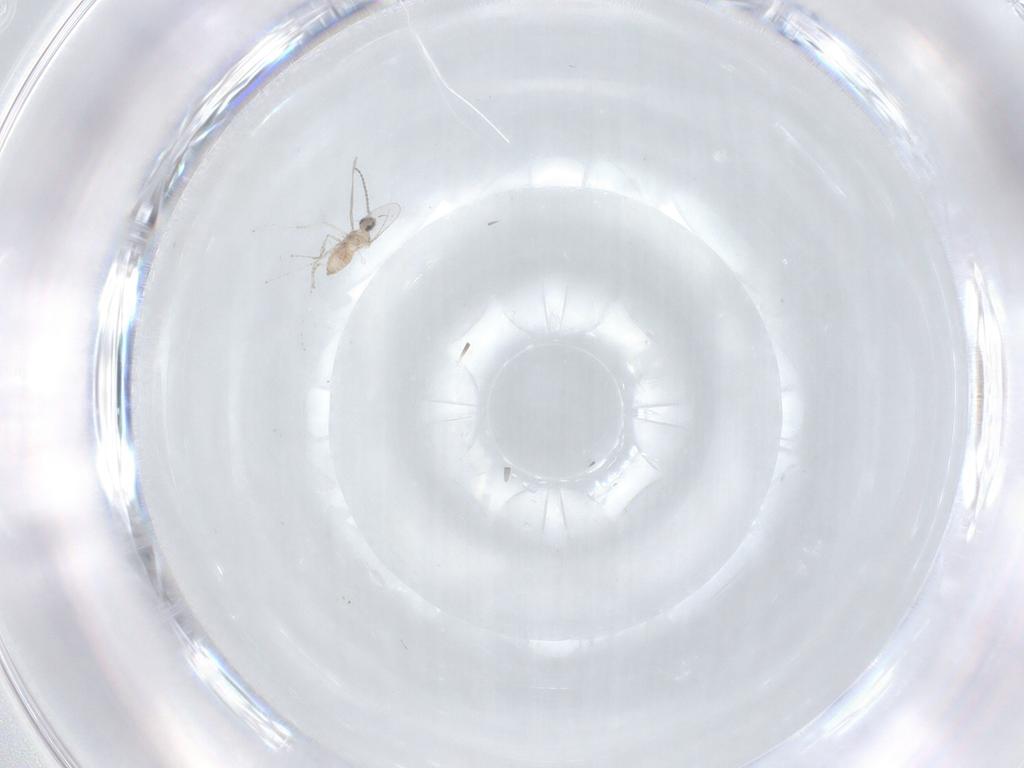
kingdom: Animalia
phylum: Arthropoda
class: Insecta
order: Diptera
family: Cecidomyiidae
